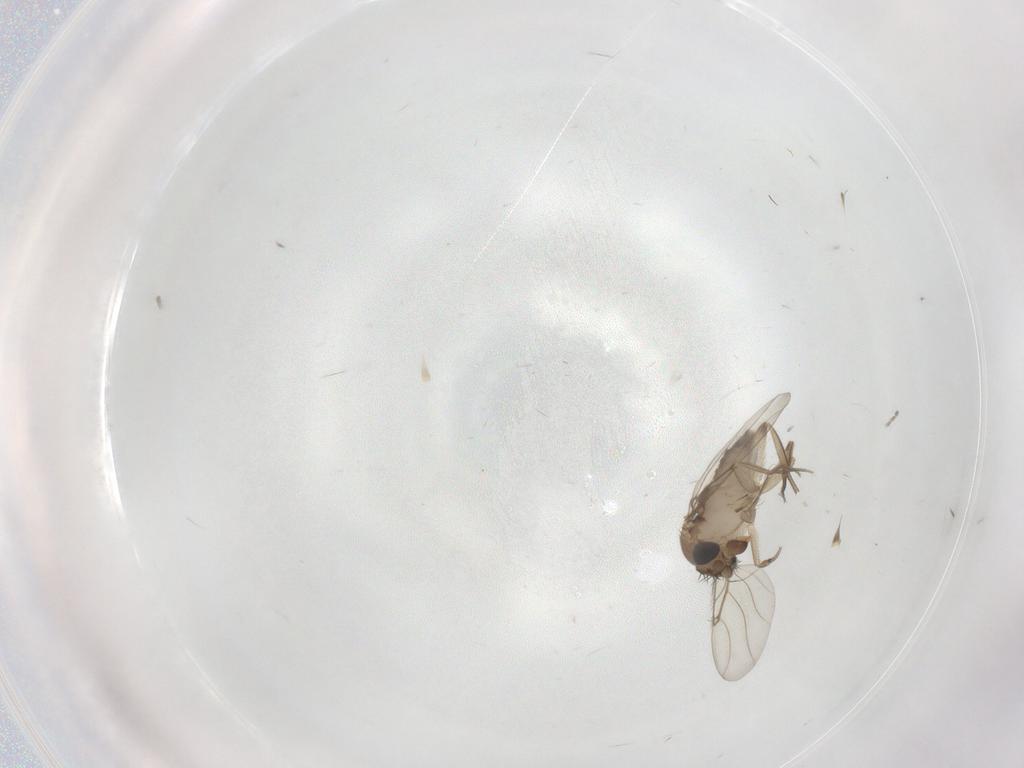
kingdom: Animalia
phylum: Arthropoda
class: Insecta
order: Diptera
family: Phoridae
